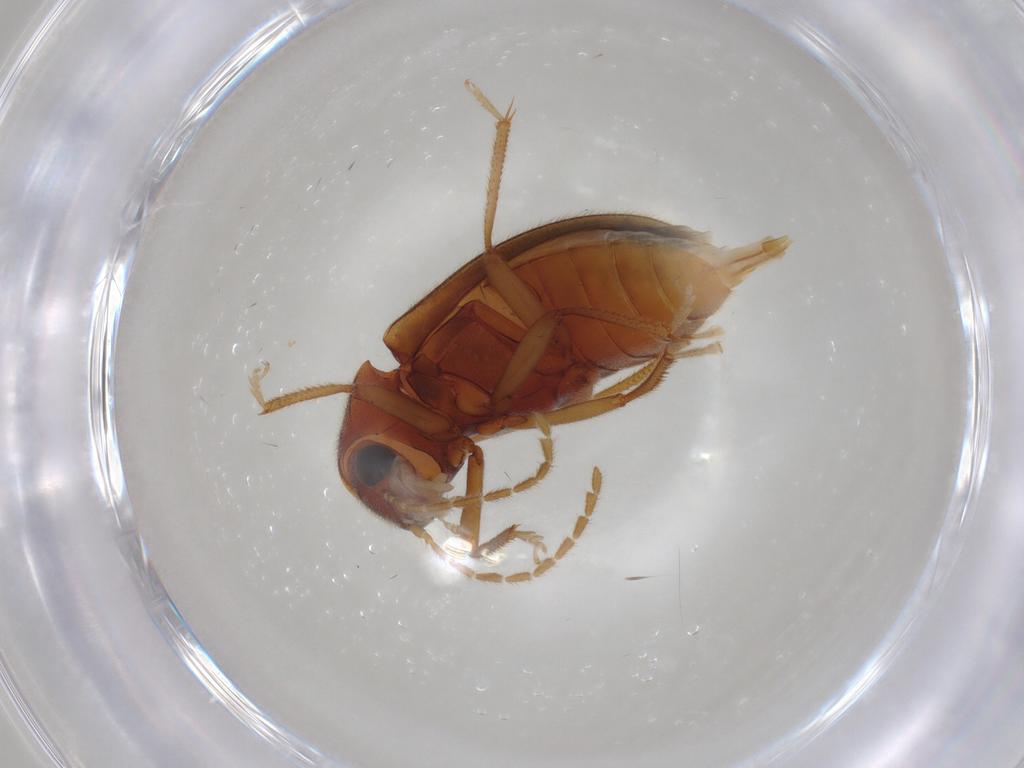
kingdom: Animalia
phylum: Arthropoda
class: Insecta
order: Coleoptera
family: Ptilodactylidae
